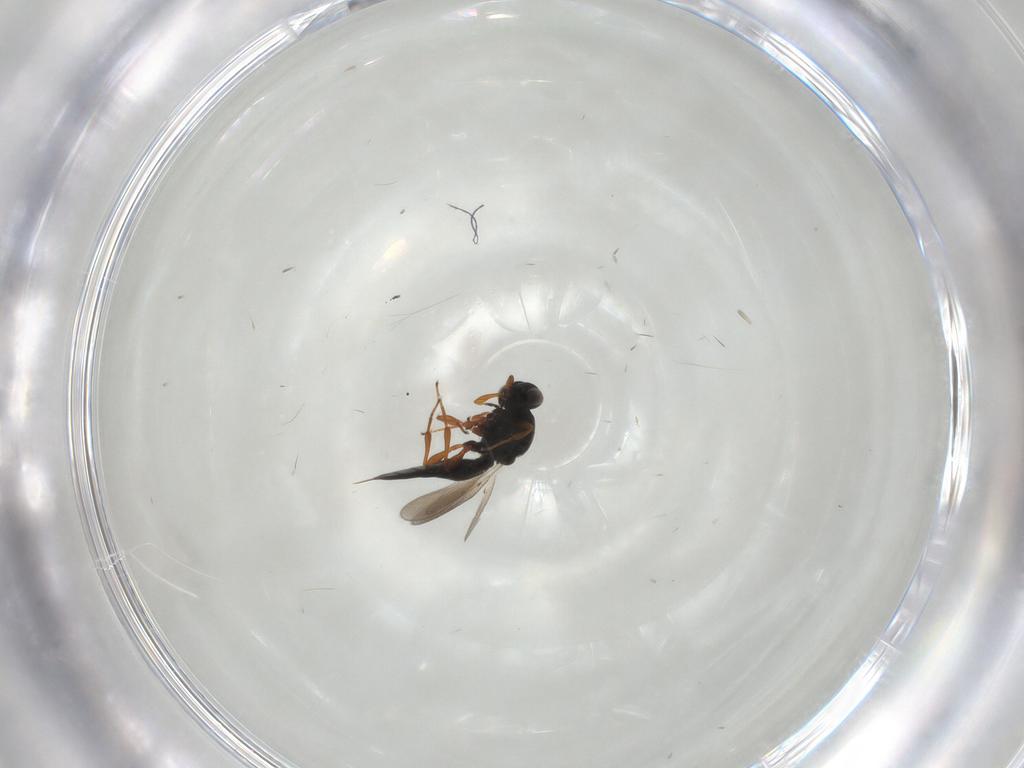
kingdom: Animalia
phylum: Arthropoda
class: Insecta
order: Hymenoptera
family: Platygastridae
